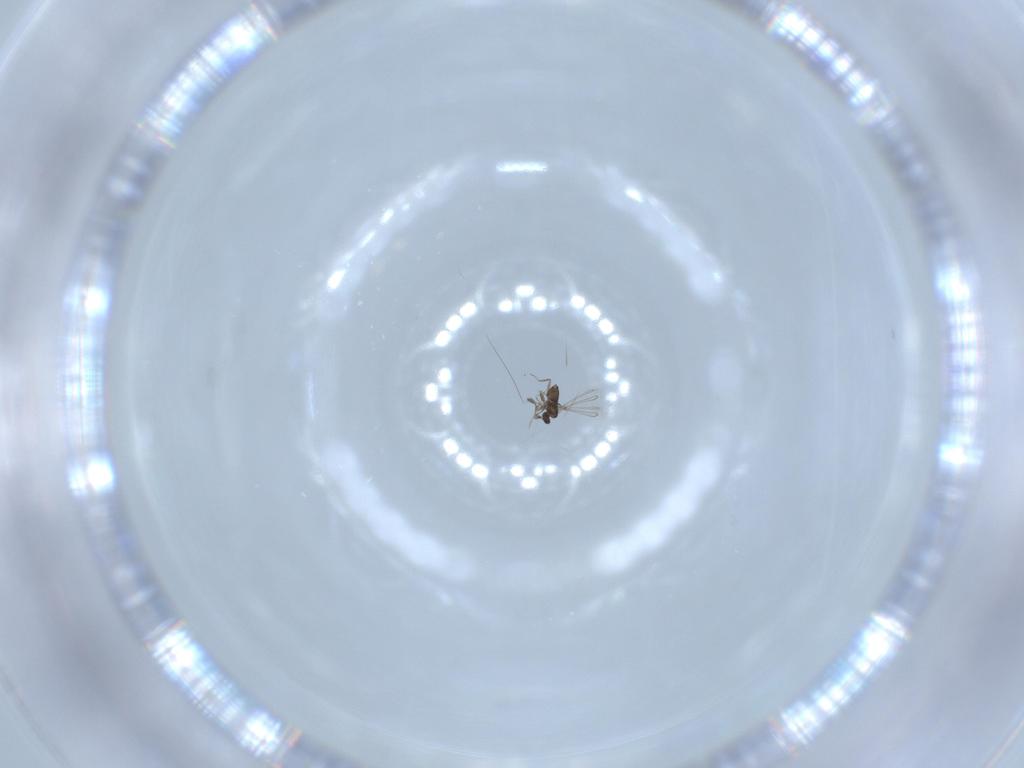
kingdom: Animalia
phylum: Arthropoda
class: Insecta
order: Hymenoptera
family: Mymaridae
